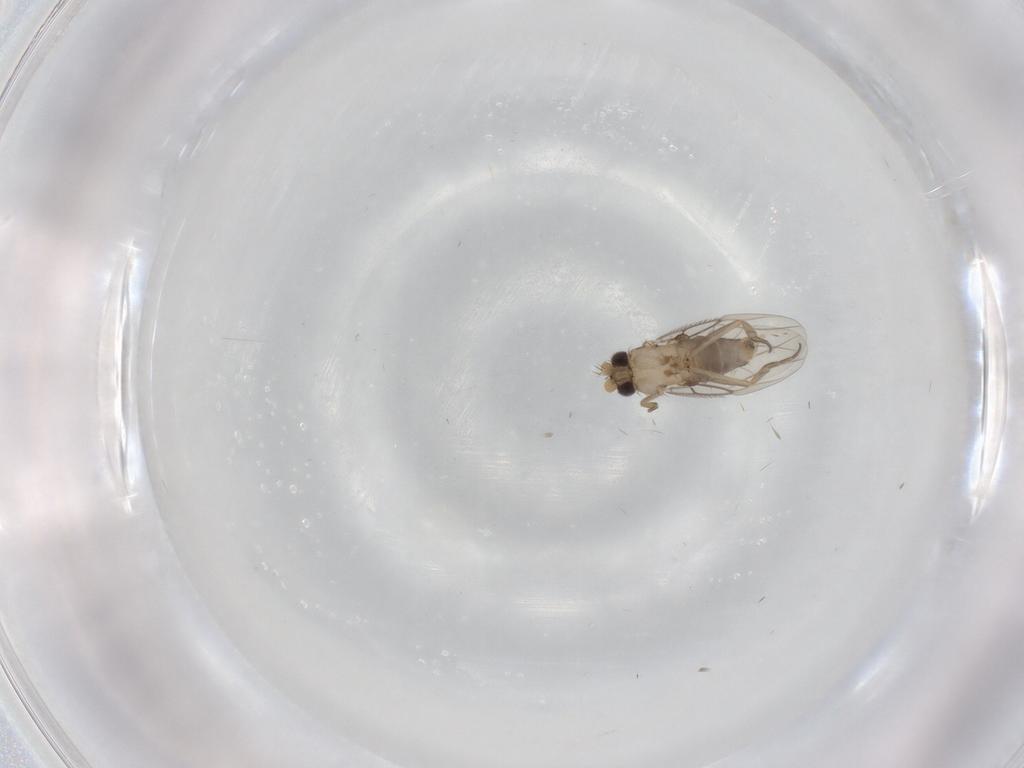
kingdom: Animalia
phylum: Arthropoda
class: Insecta
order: Diptera
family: Phoridae
